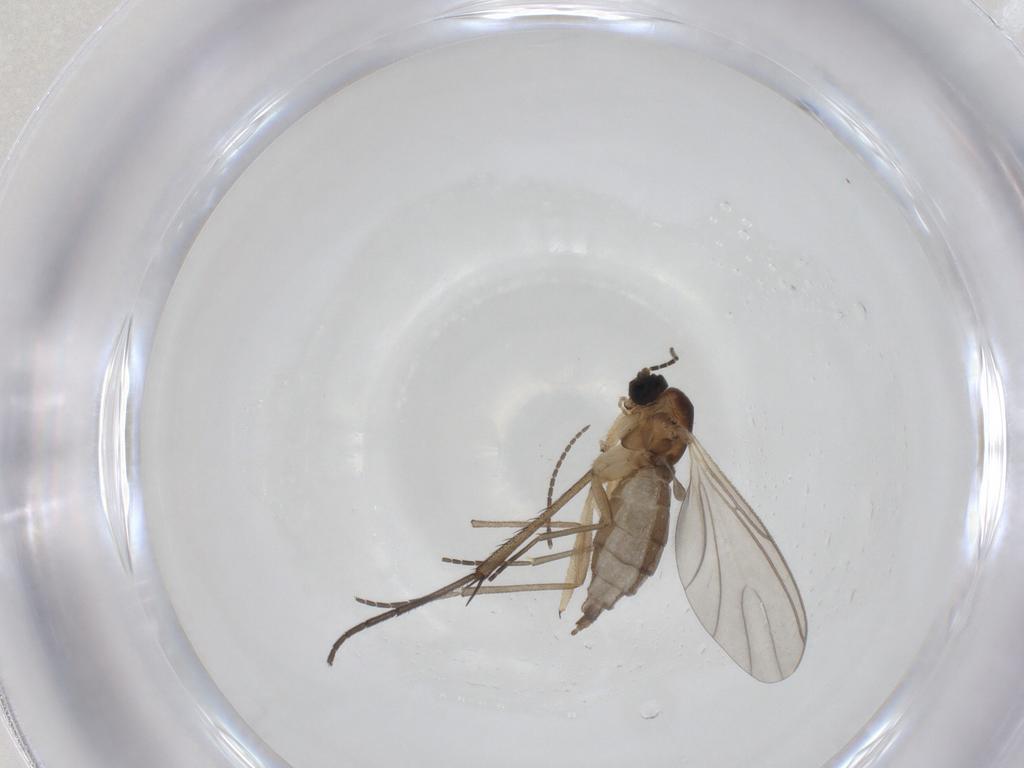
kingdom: Animalia
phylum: Arthropoda
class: Insecta
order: Diptera
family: Sciaridae
